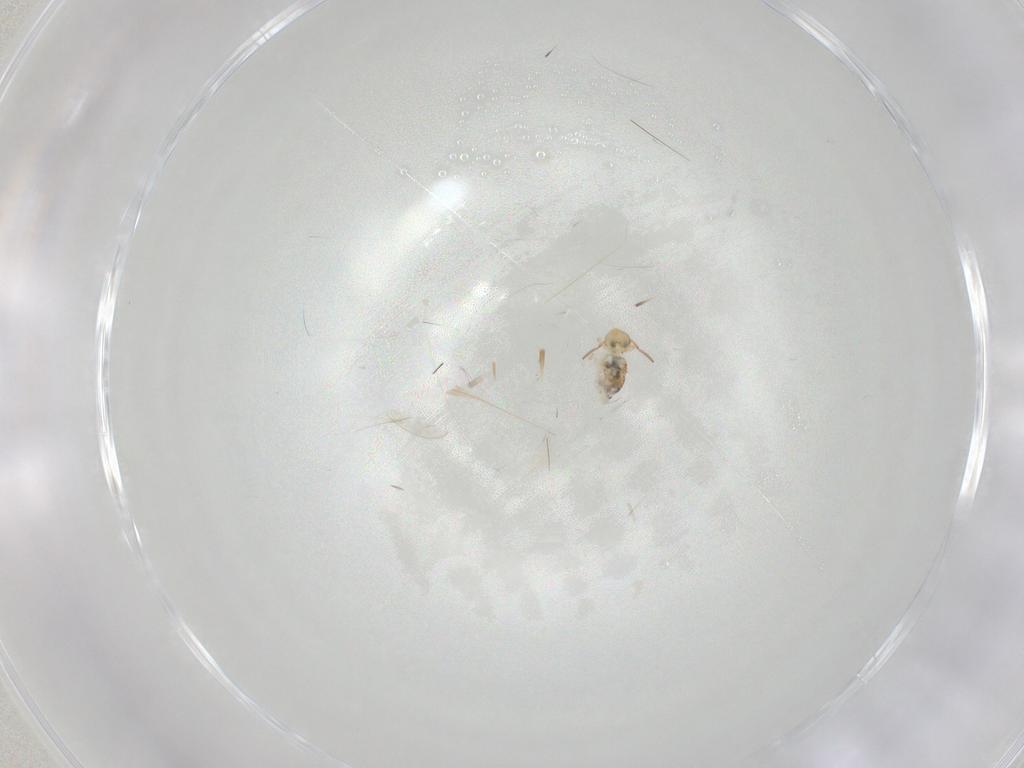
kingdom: Animalia
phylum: Arthropoda
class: Collembola
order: Symphypleona
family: Bourletiellidae
